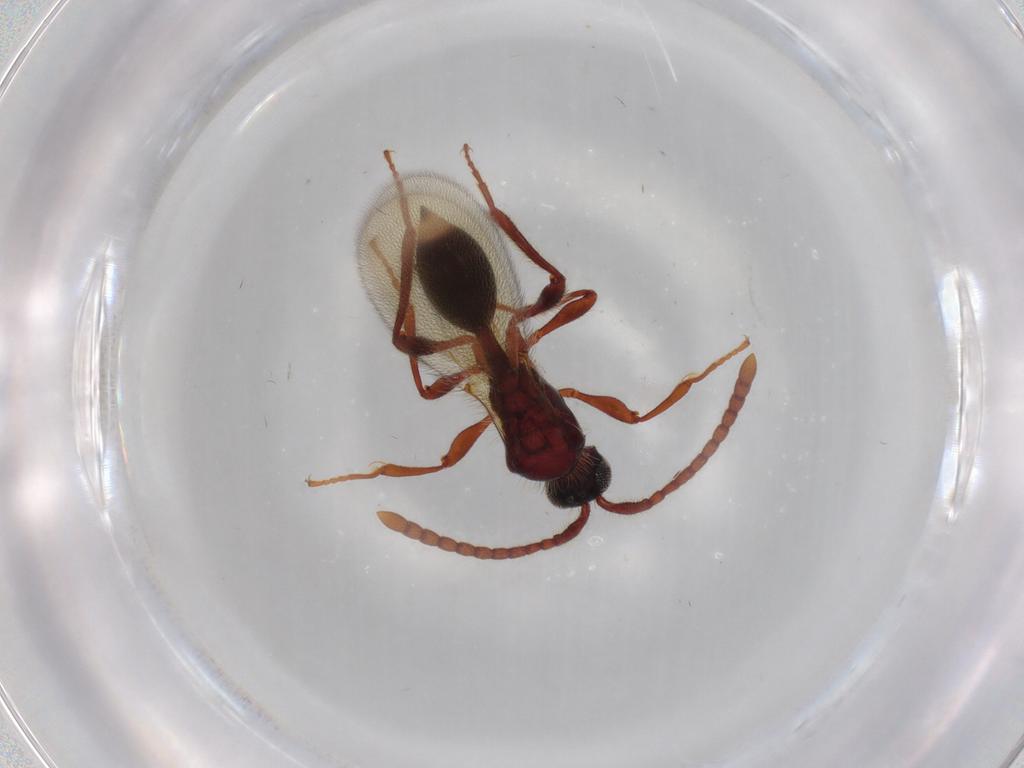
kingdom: Animalia
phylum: Arthropoda
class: Insecta
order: Hymenoptera
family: Diapriidae
